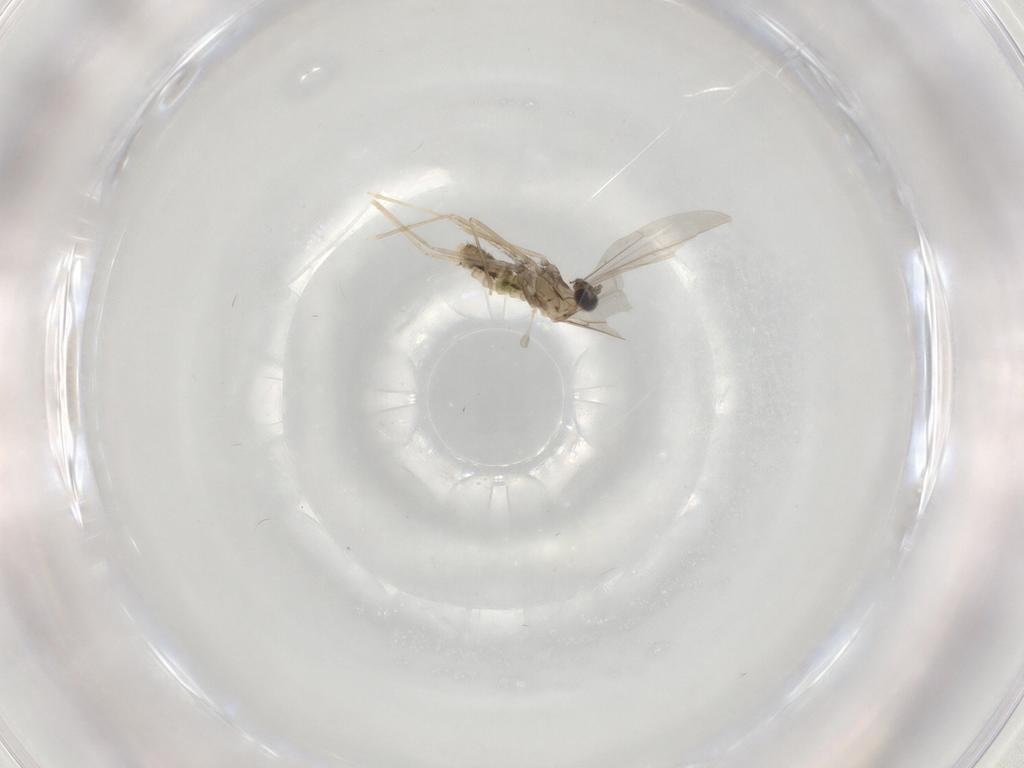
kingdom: Animalia
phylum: Arthropoda
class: Insecta
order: Diptera
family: Cecidomyiidae
